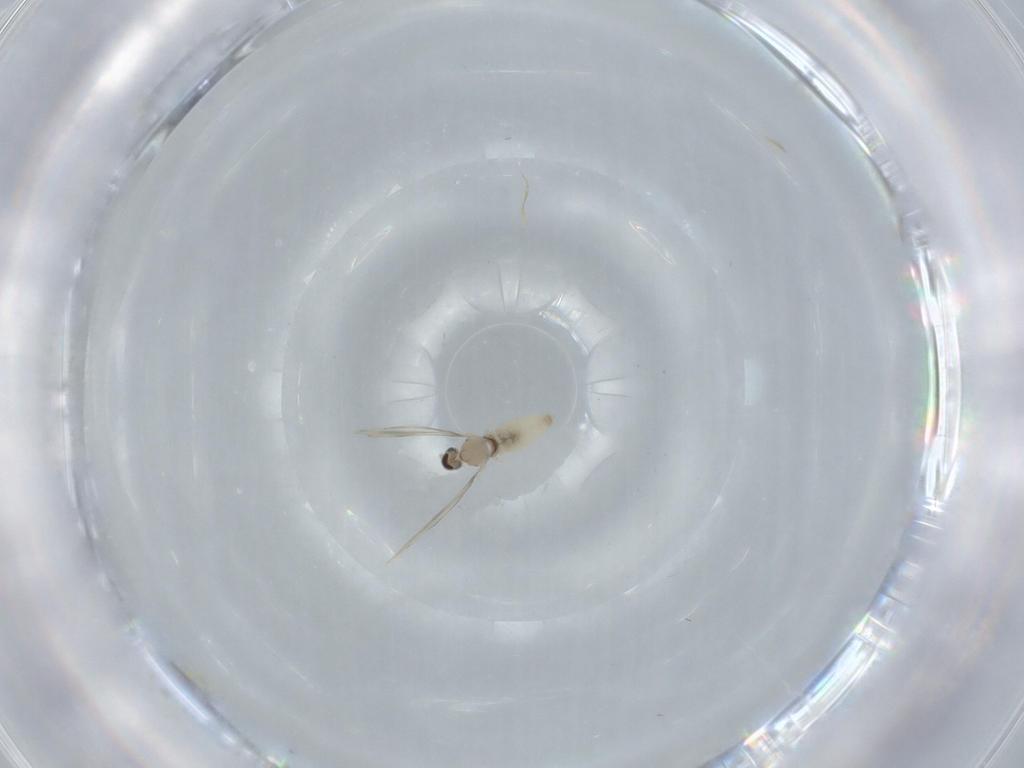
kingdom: Animalia
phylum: Arthropoda
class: Insecta
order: Diptera
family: Cecidomyiidae
